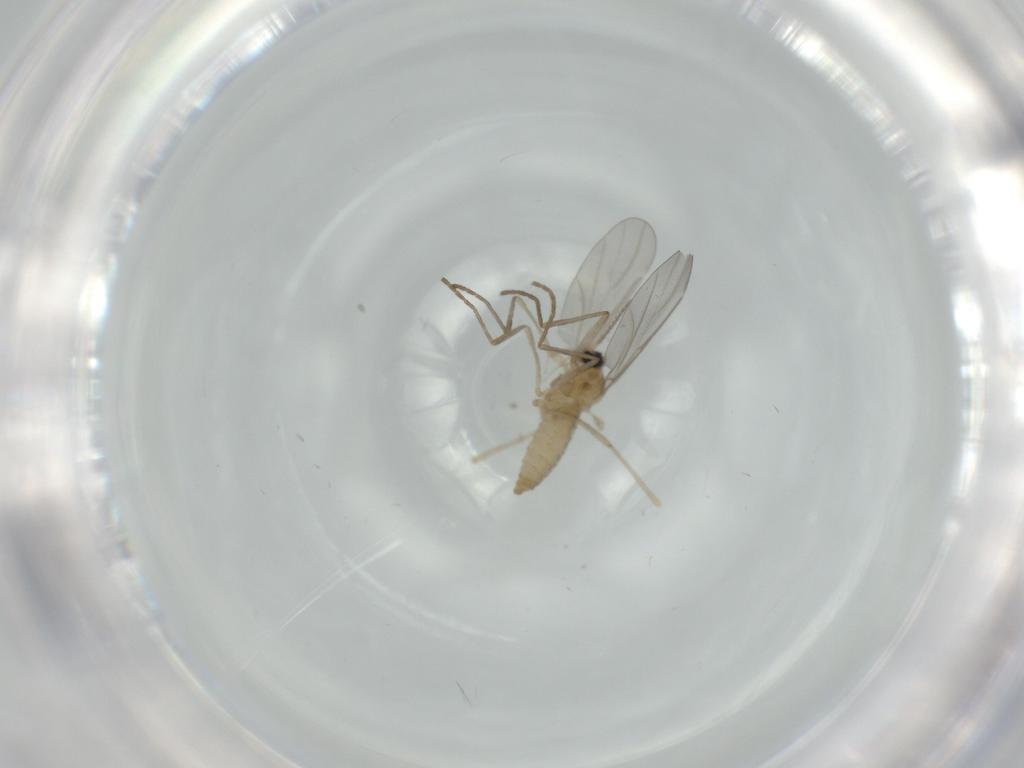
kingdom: Animalia
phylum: Arthropoda
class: Insecta
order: Diptera
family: Cecidomyiidae
